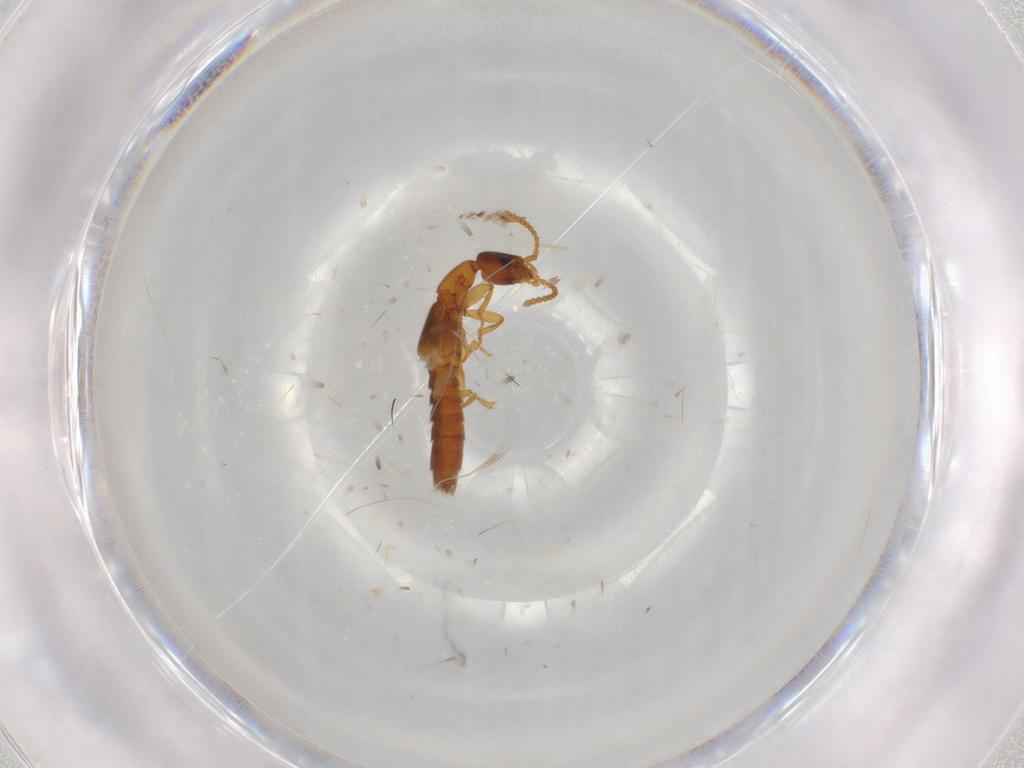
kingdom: Animalia
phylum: Arthropoda
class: Insecta
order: Coleoptera
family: Staphylinidae
